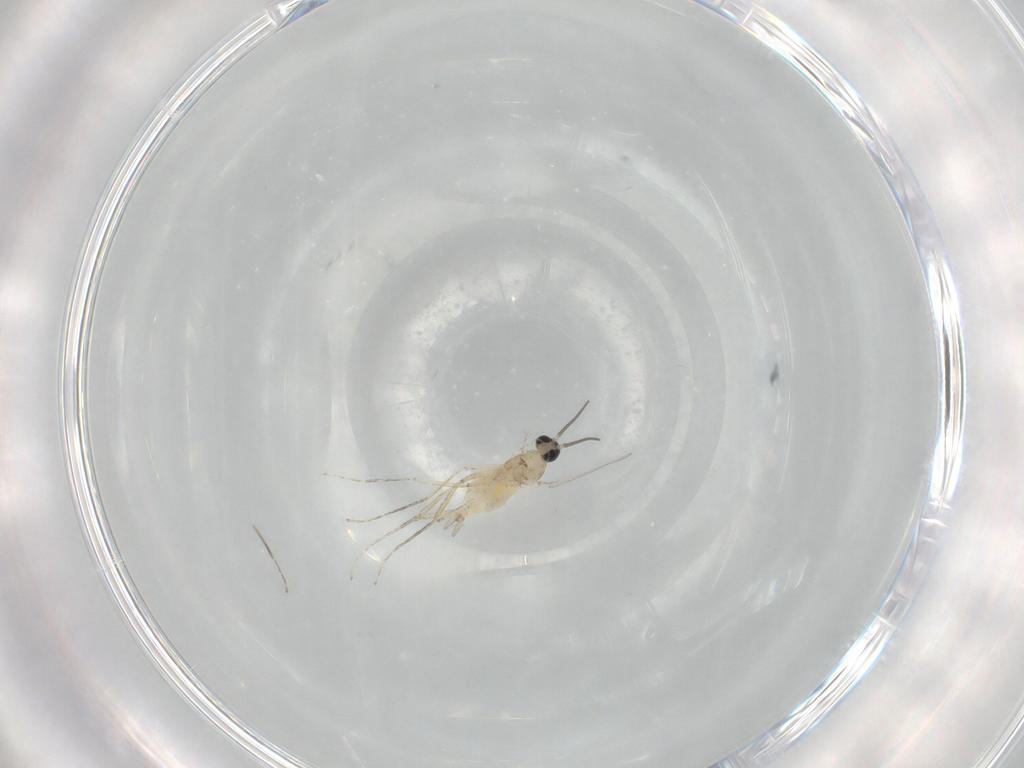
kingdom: Animalia
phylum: Arthropoda
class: Insecta
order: Diptera
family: Cecidomyiidae
